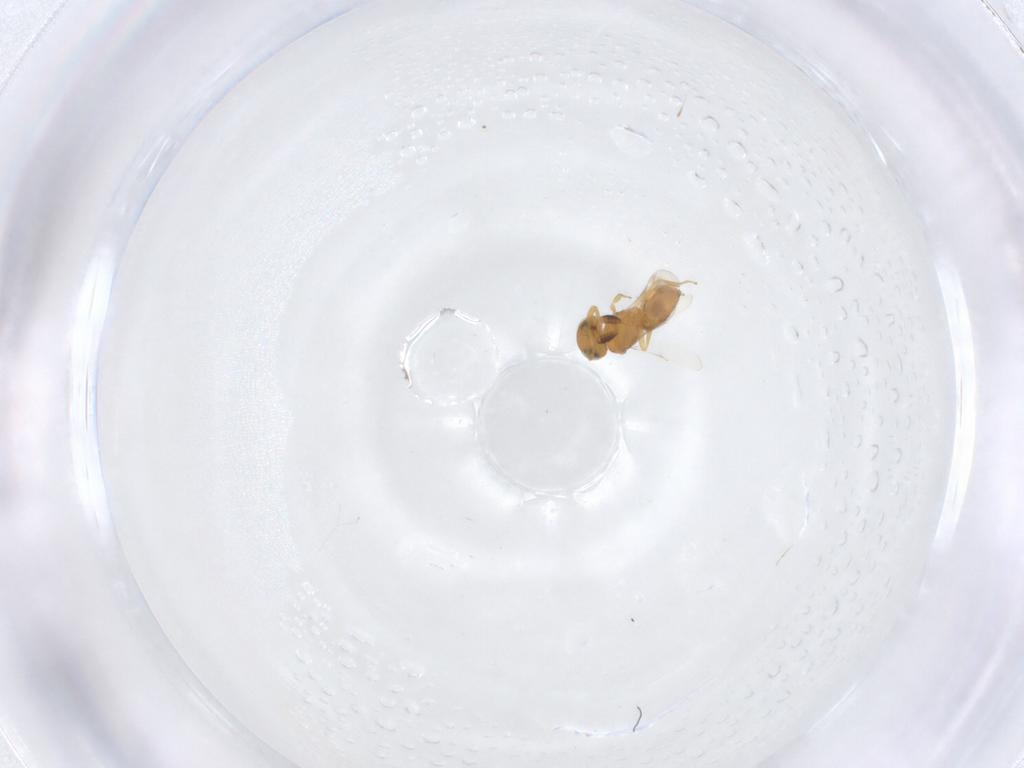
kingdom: Animalia
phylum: Arthropoda
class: Insecta
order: Hymenoptera
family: Scelionidae
